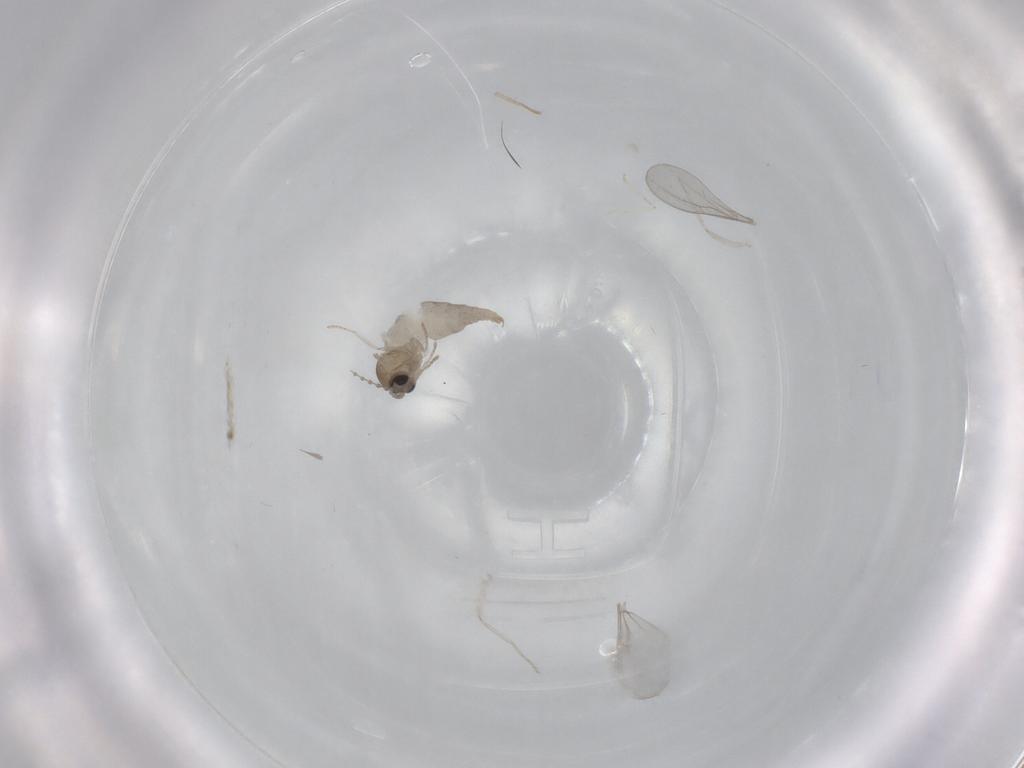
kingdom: Animalia
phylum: Arthropoda
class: Insecta
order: Diptera
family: Cecidomyiidae
